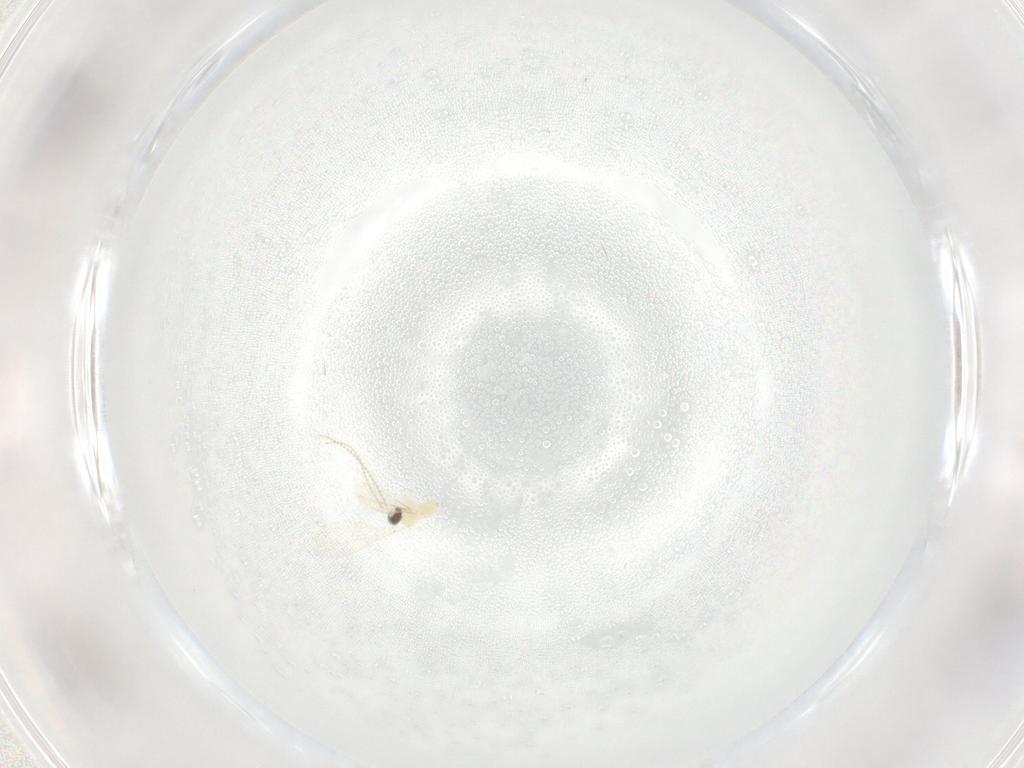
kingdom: Animalia
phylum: Arthropoda
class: Insecta
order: Diptera
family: Cecidomyiidae
